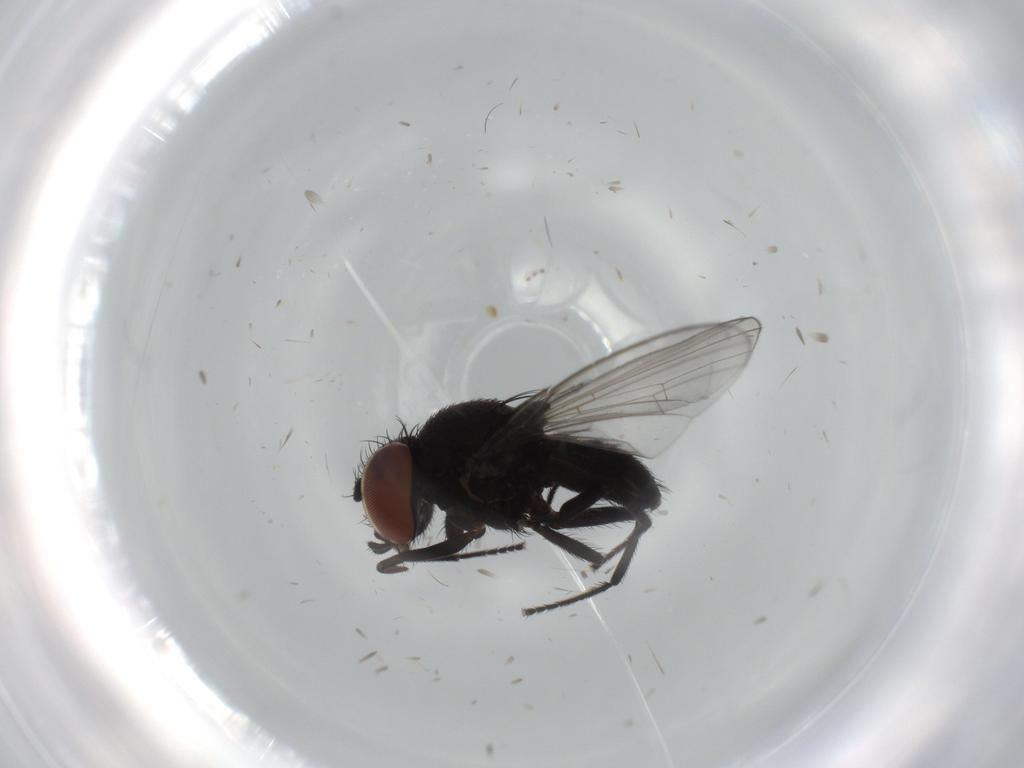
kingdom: Animalia
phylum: Arthropoda
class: Insecta
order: Diptera
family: Milichiidae
